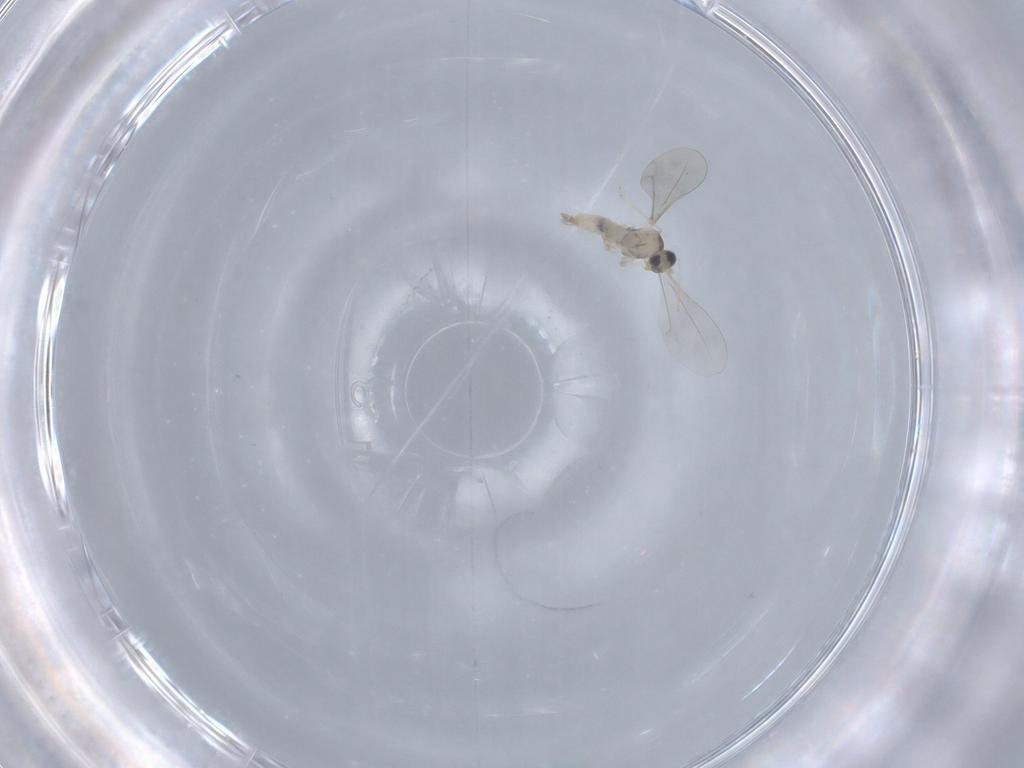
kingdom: Animalia
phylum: Arthropoda
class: Insecta
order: Diptera
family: Cecidomyiidae
